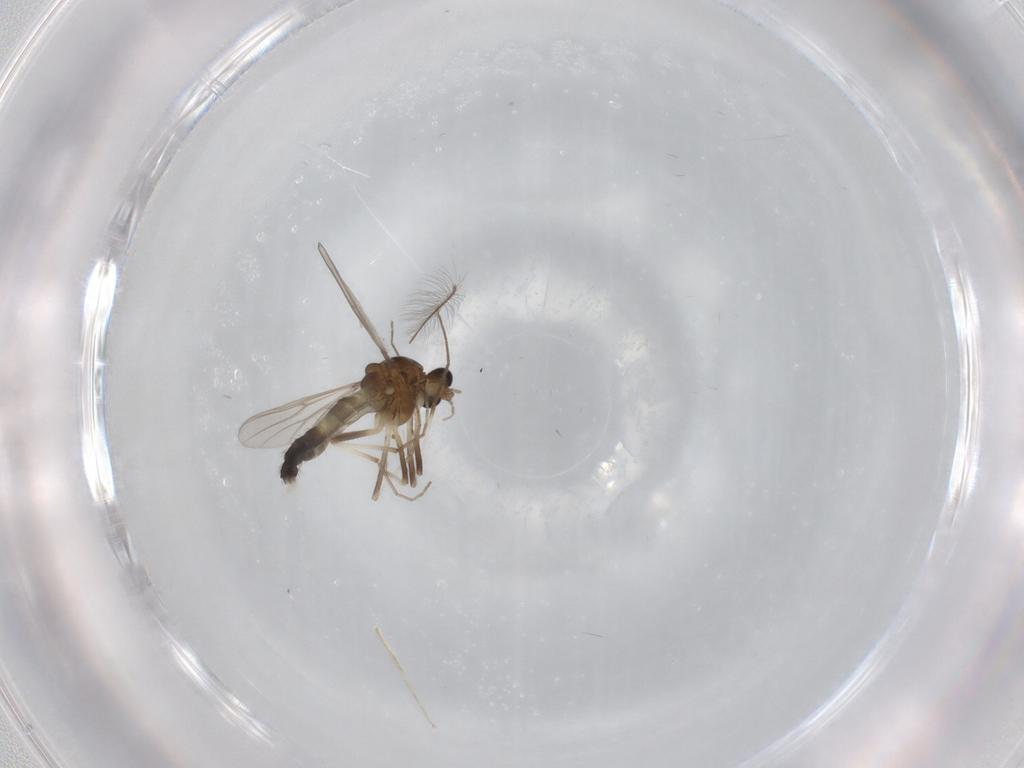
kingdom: Animalia
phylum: Arthropoda
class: Insecta
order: Diptera
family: Chironomidae
